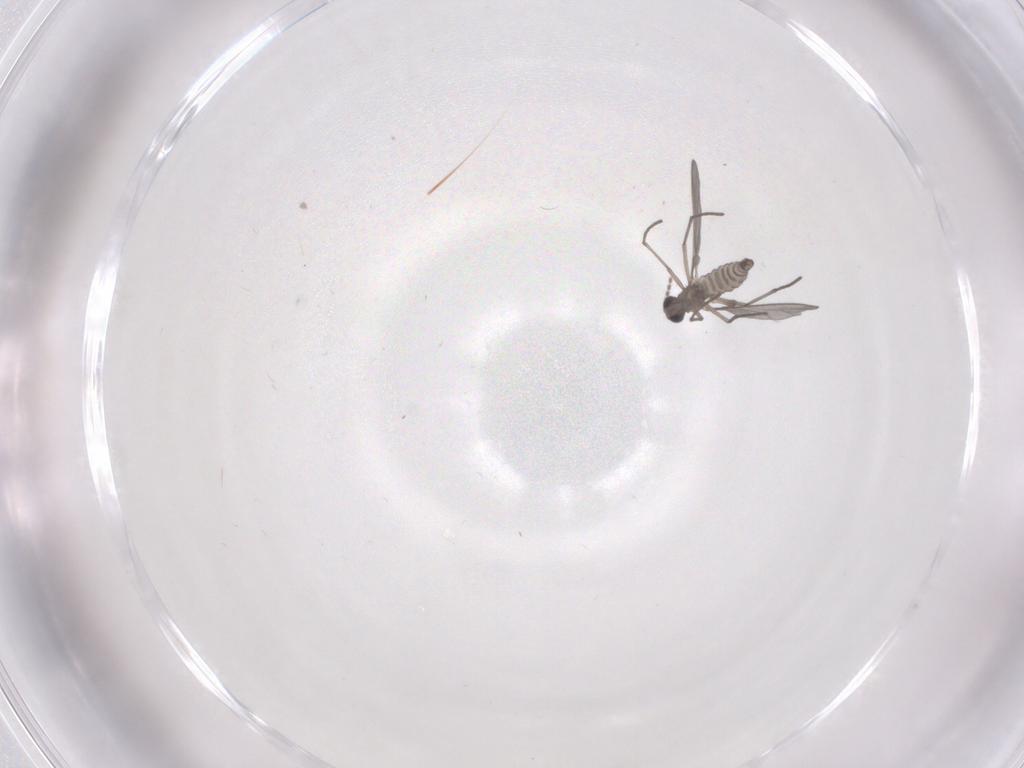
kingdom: Animalia
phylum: Arthropoda
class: Insecta
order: Diptera
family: Sciaridae
